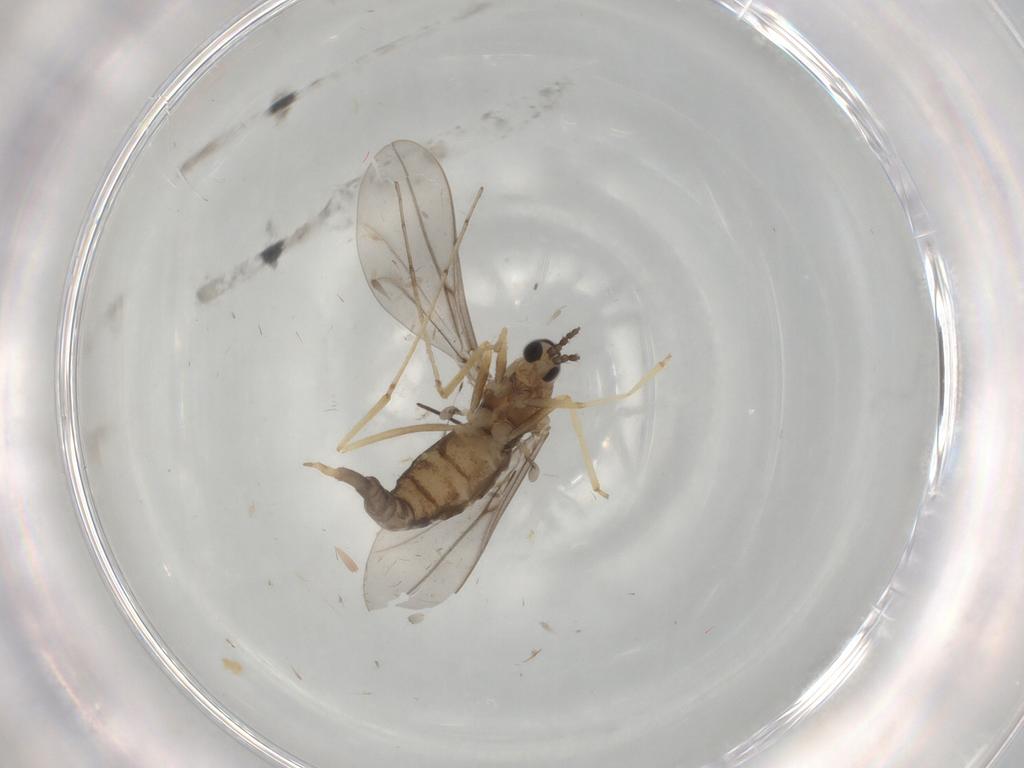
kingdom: Animalia
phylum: Arthropoda
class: Insecta
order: Diptera
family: Cecidomyiidae
